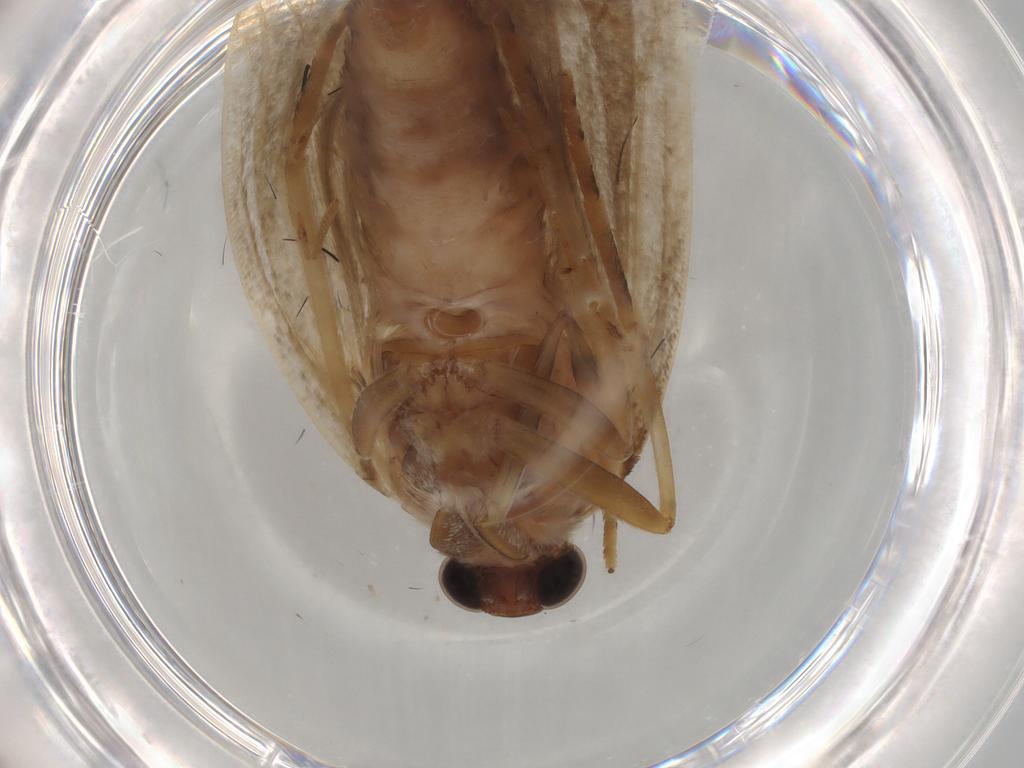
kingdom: Animalia
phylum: Arthropoda
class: Insecta
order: Lepidoptera
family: Crambidae
